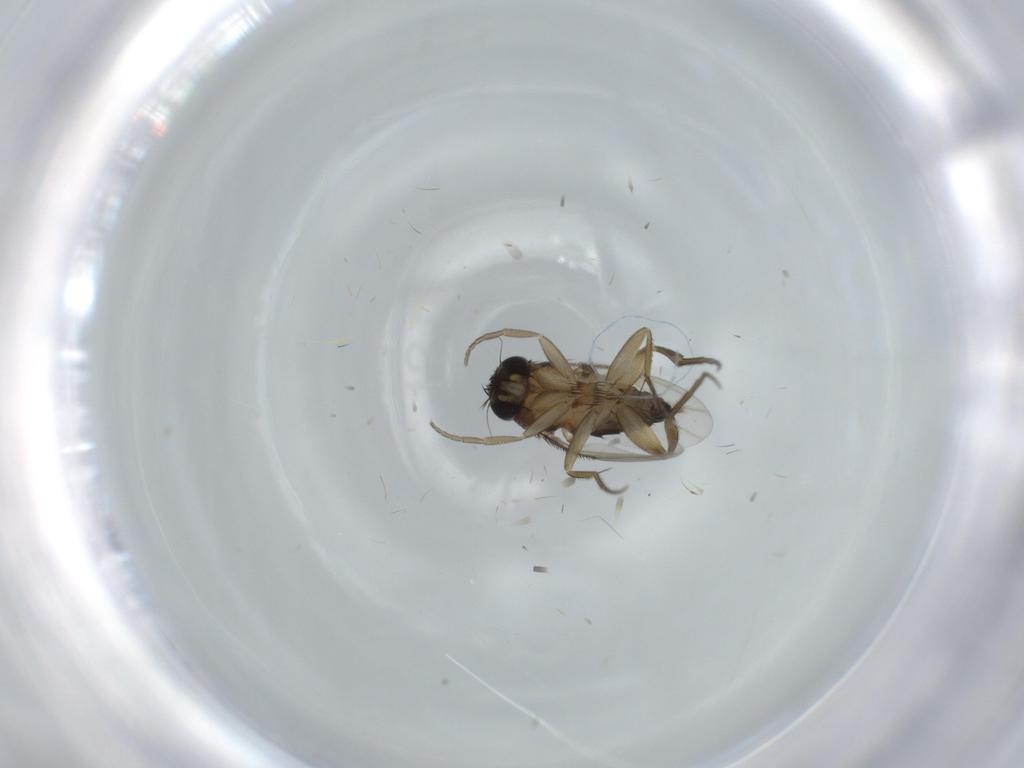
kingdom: Animalia
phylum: Arthropoda
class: Insecta
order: Diptera
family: Phoridae
